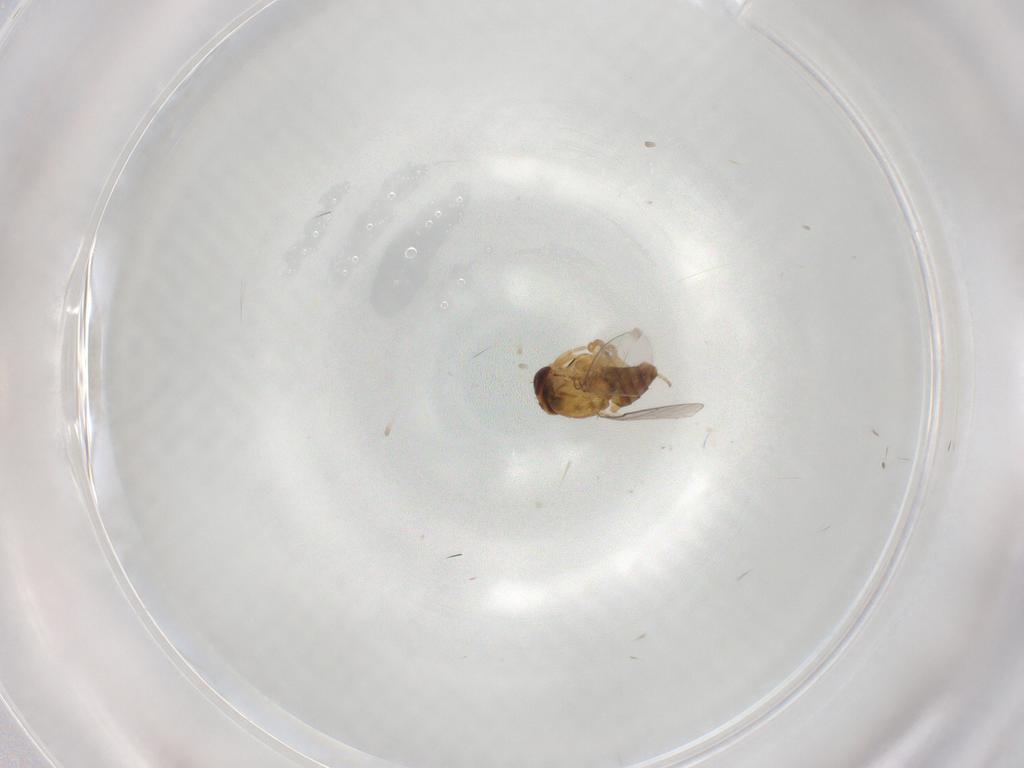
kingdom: Animalia
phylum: Arthropoda
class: Insecta
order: Diptera
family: Chloropidae
